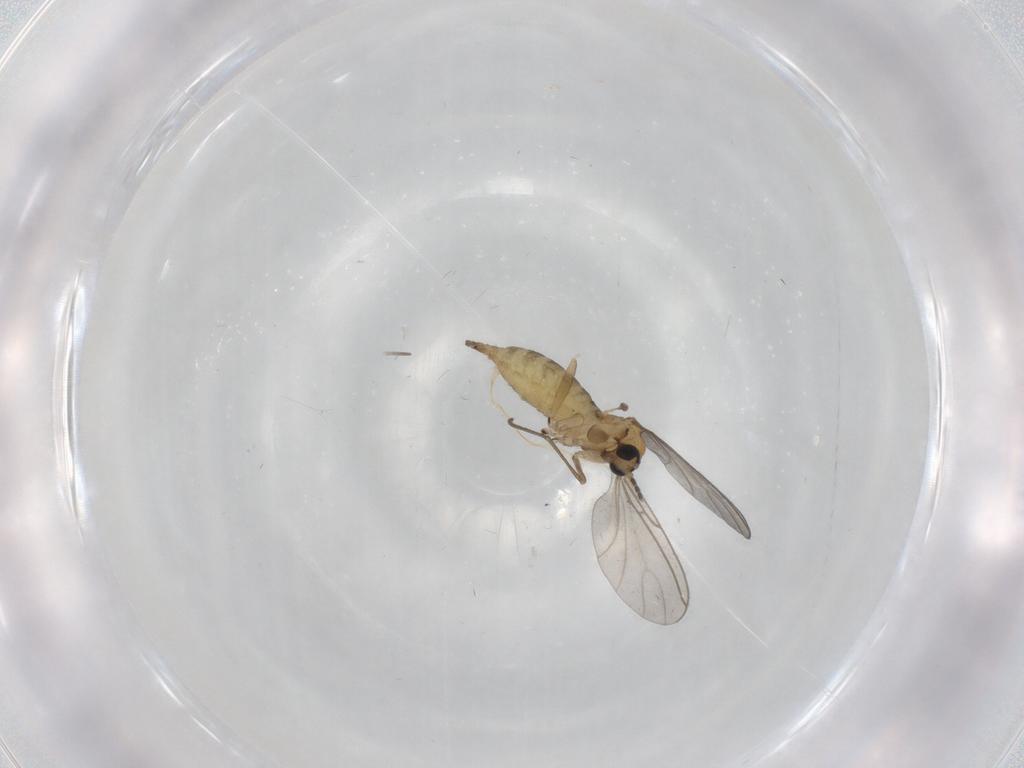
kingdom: Animalia
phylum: Arthropoda
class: Insecta
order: Diptera
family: Sciaridae
